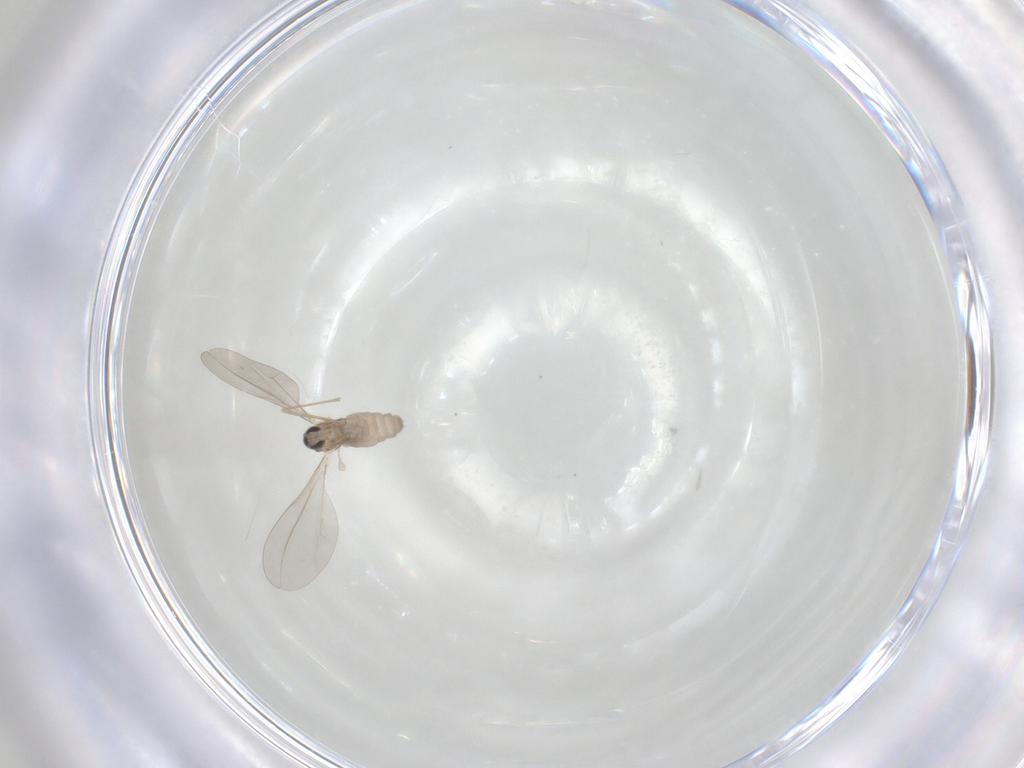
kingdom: Animalia
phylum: Arthropoda
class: Insecta
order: Diptera
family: Cecidomyiidae
